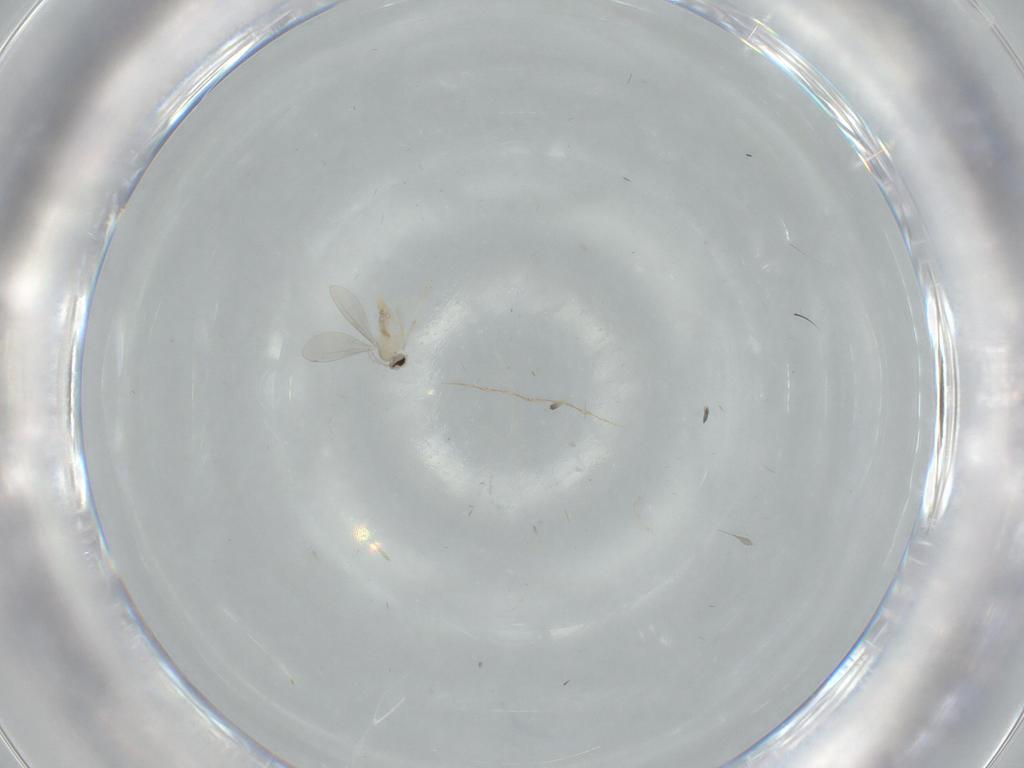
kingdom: Animalia
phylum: Arthropoda
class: Insecta
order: Diptera
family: Cecidomyiidae
